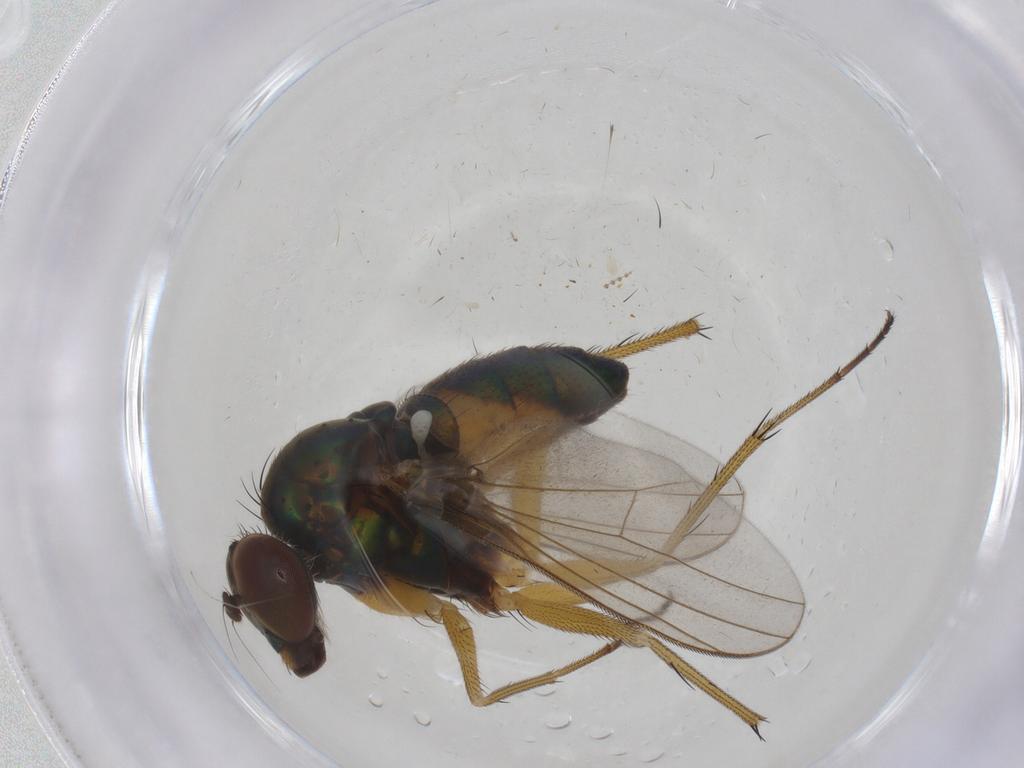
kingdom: Animalia
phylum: Arthropoda
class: Insecta
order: Diptera
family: Sarcophagidae
